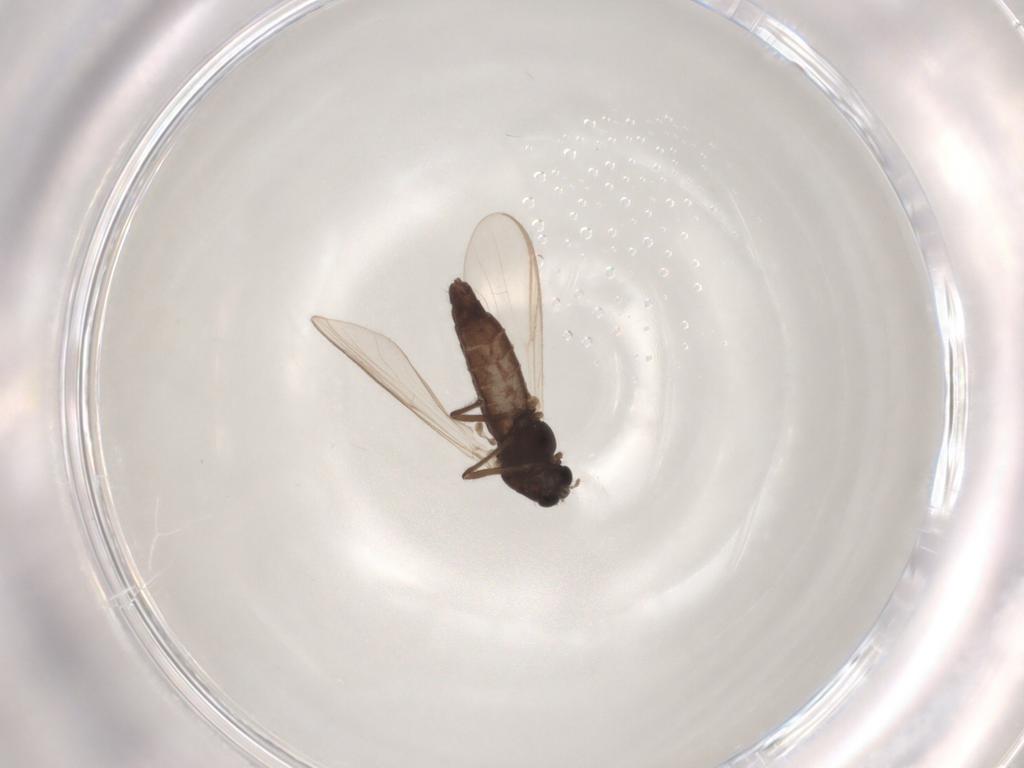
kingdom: Animalia
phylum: Arthropoda
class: Insecta
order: Diptera
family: Chironomidae
